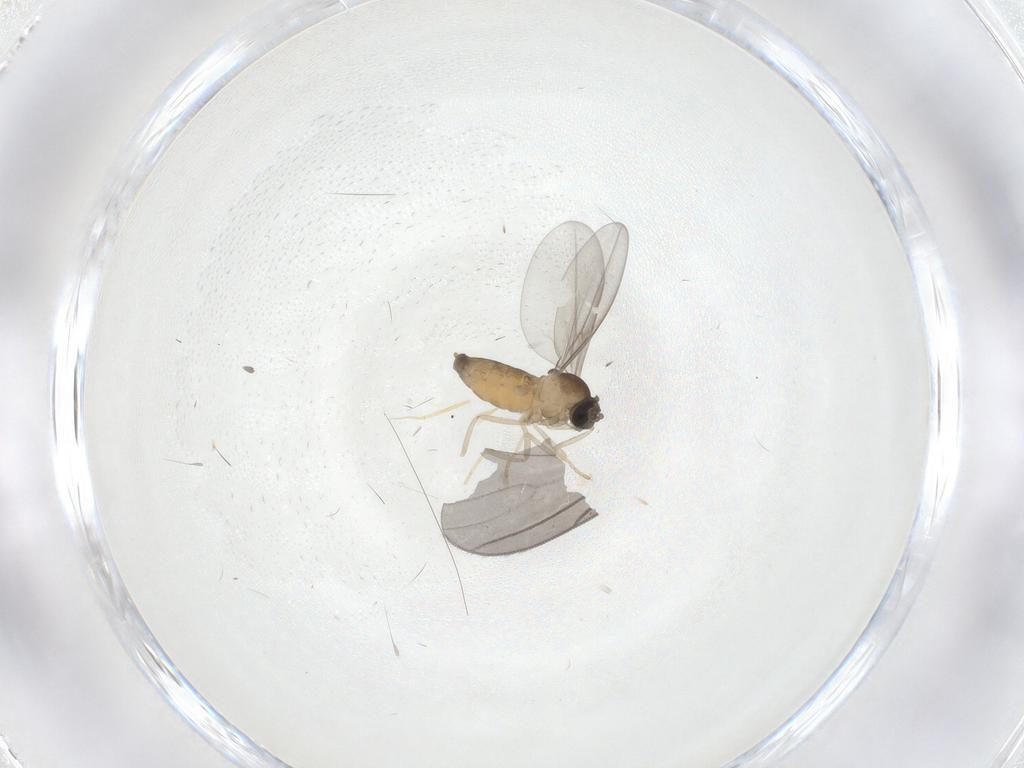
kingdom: Animalia
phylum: Arthropoda
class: Insecta
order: Diptera
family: Cecidomyiidae
